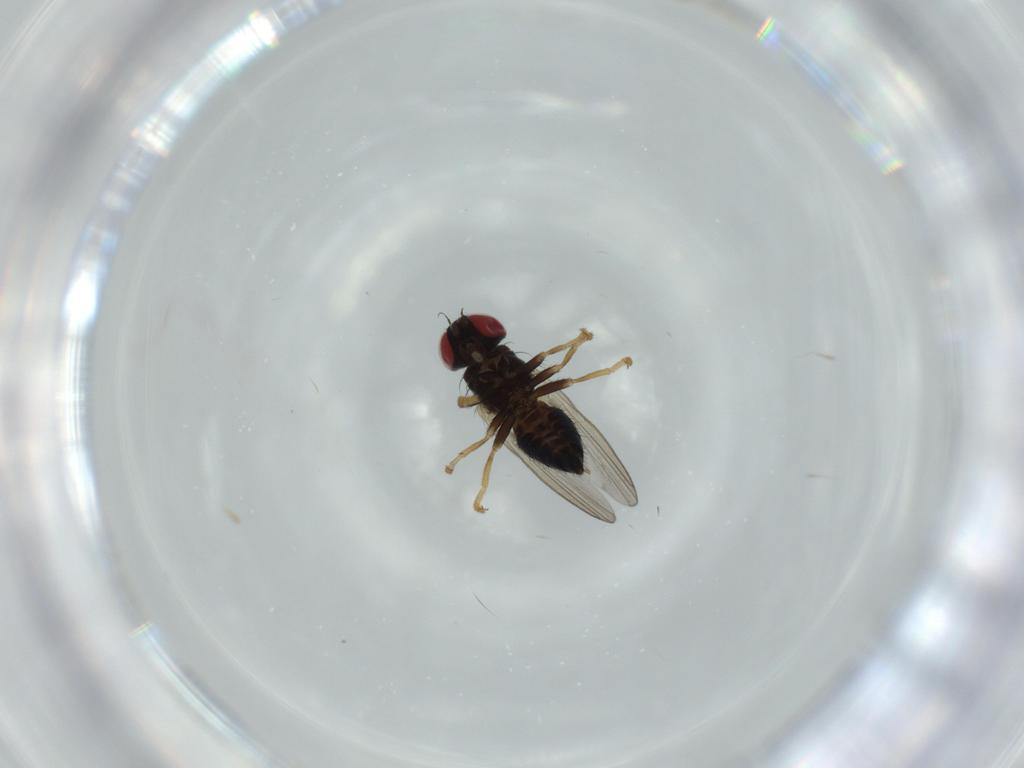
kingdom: Animalia
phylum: Arthropoda
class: Insecta
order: Diptera
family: Chamaemyiidae
